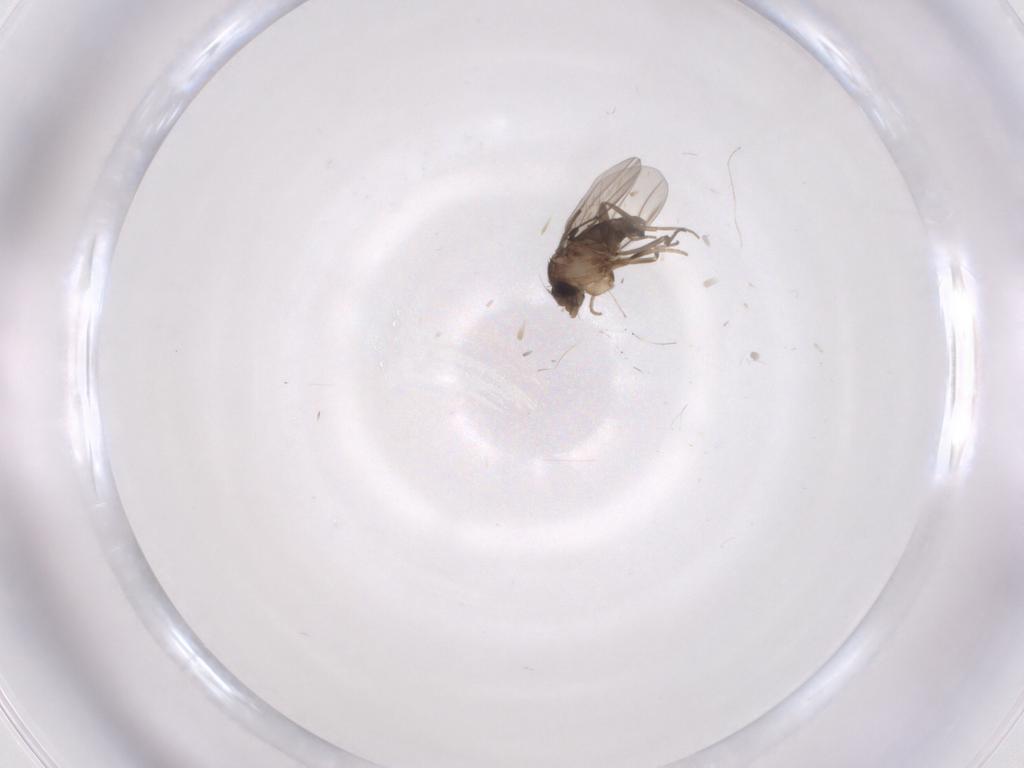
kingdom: Animalia
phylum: Arthropoda
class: Insecta
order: Diptera
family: Phoridae
